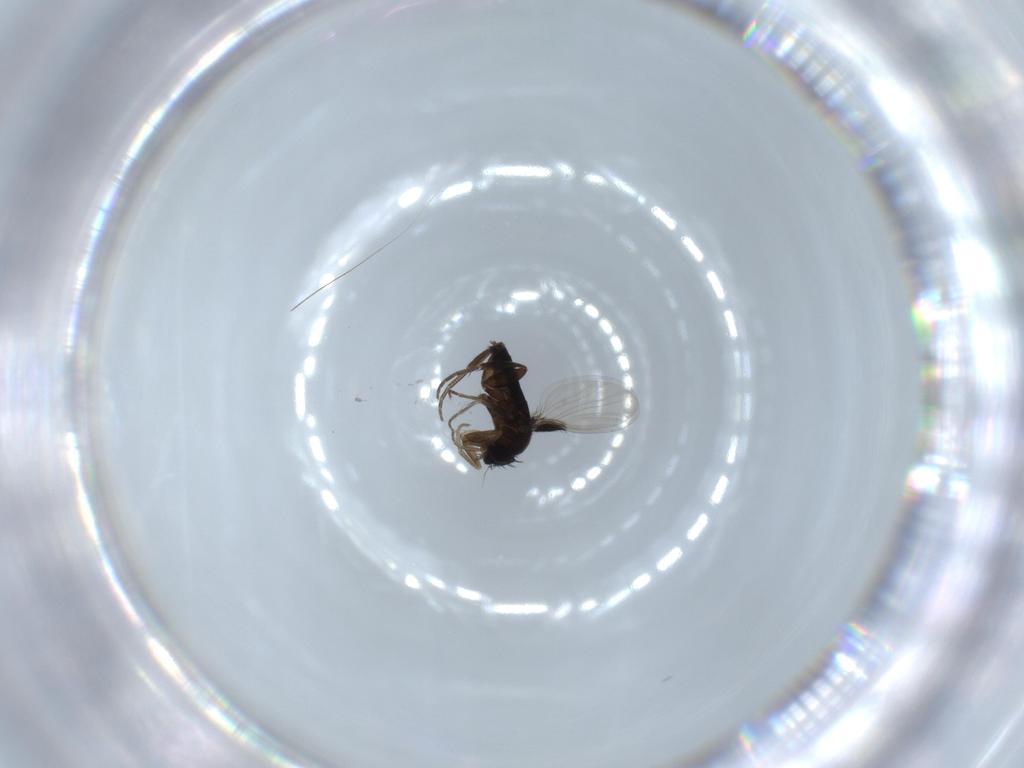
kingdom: Animalia
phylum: Arthropoda
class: Insecta
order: Diptera
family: Phoridae
